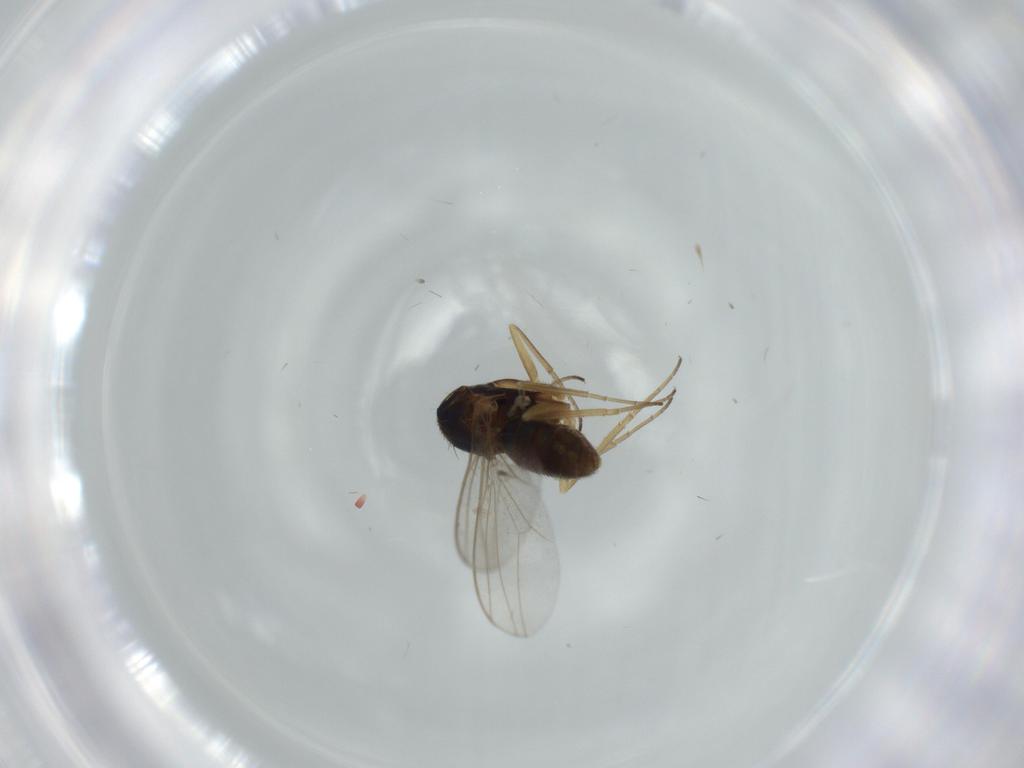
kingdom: Animalia
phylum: Arthropoda
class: Insecta
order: Diptera
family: Dolichopodidae
